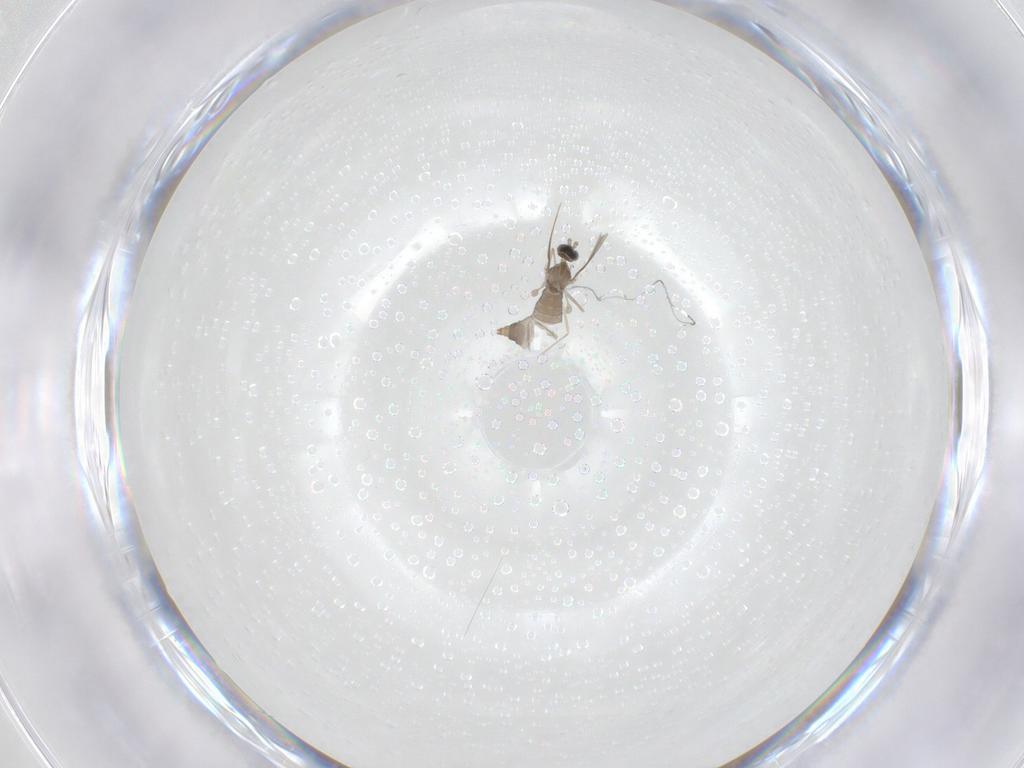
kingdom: Animalia
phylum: Arthropoda
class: Insecta
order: Diptera
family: Cecidomyiidae
